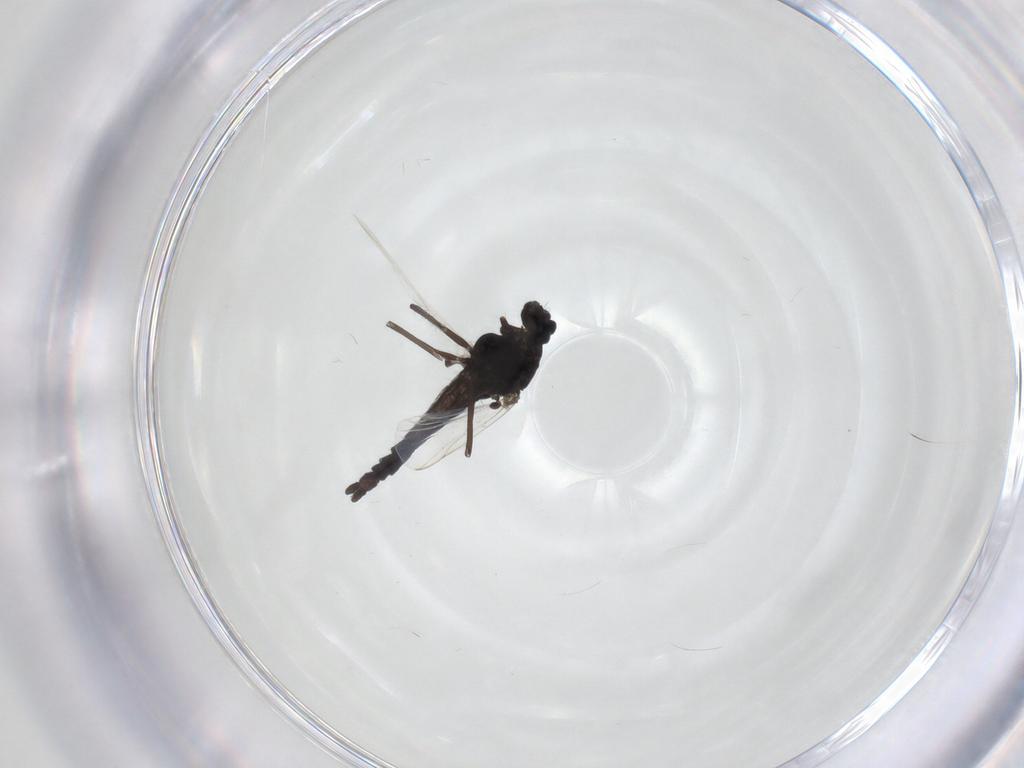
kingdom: Animalia
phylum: Arthropoda
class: Insecta
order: Diptera
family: Chironomidae
